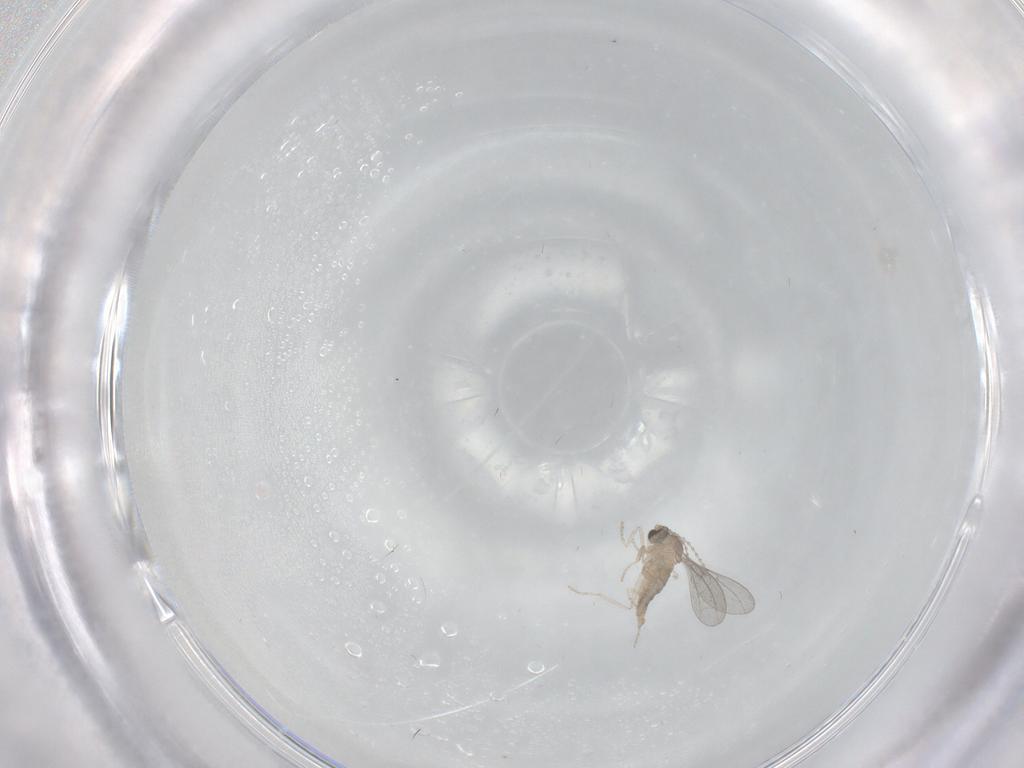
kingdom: Animalia
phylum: Arthropoda
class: Insecta
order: Diptera
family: Cecidomyiidae
